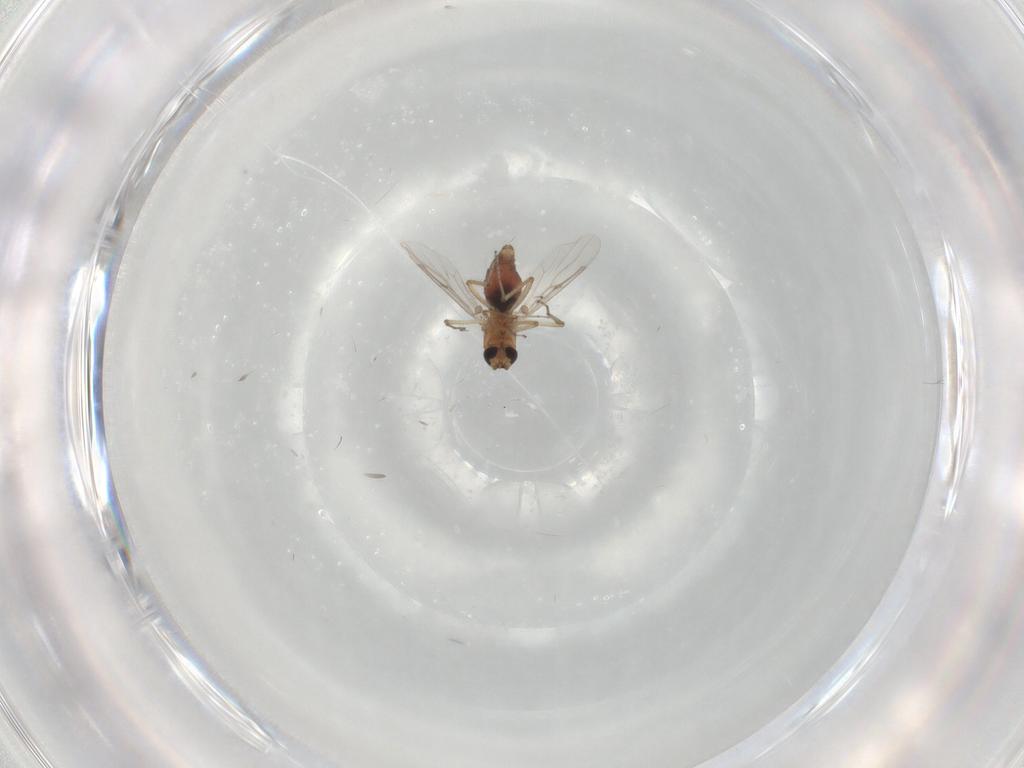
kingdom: Animalia
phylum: Arthropoda
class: Insecta
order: Diptera
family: Ceratopogonidae
